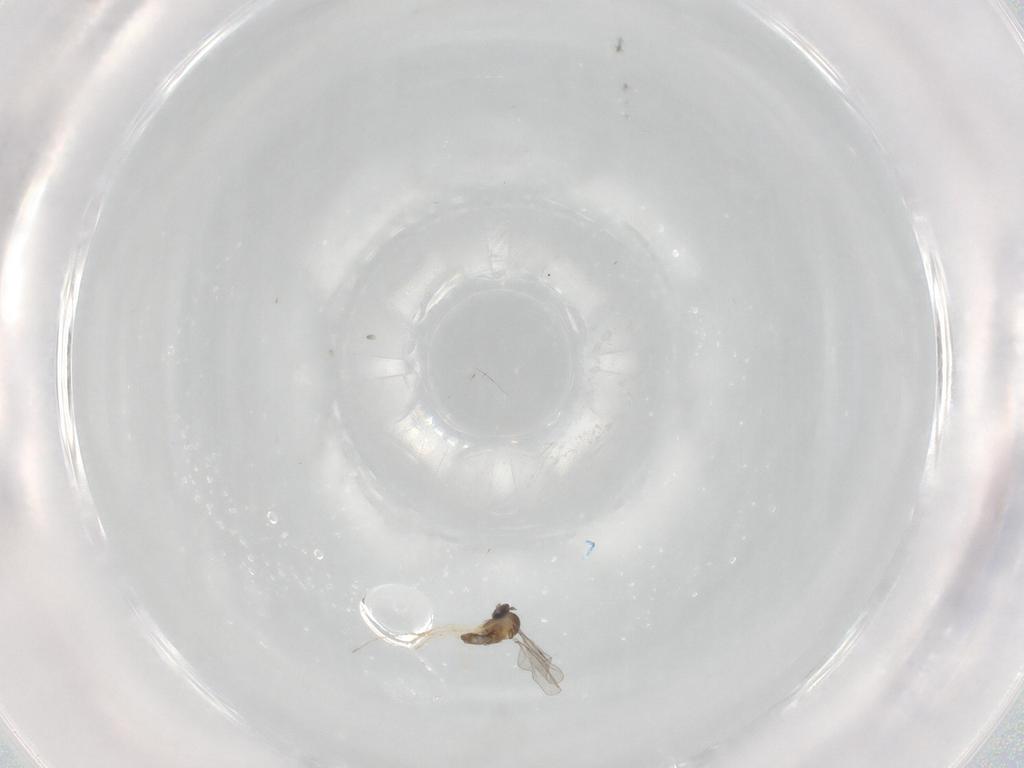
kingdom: Animalia
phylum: Arthropoda
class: Insecta
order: Diptera
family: Cecidomyiidae
